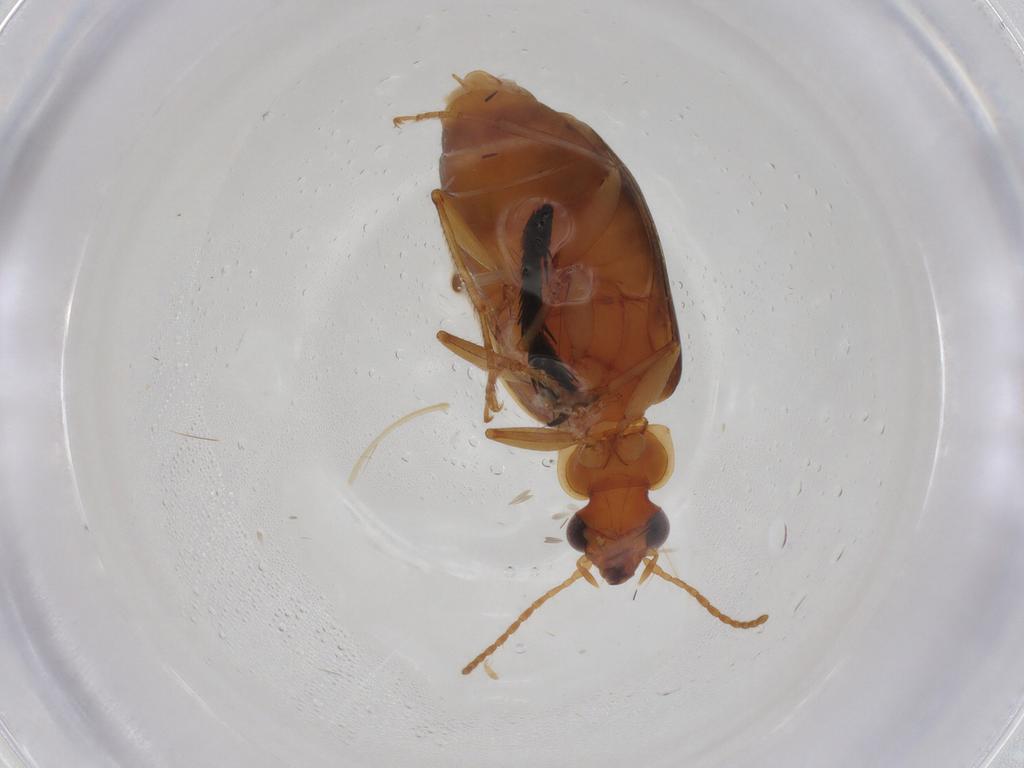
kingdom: Animalia
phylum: Arthropoda
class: Insecta
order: Coleoptera
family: Carabidae
